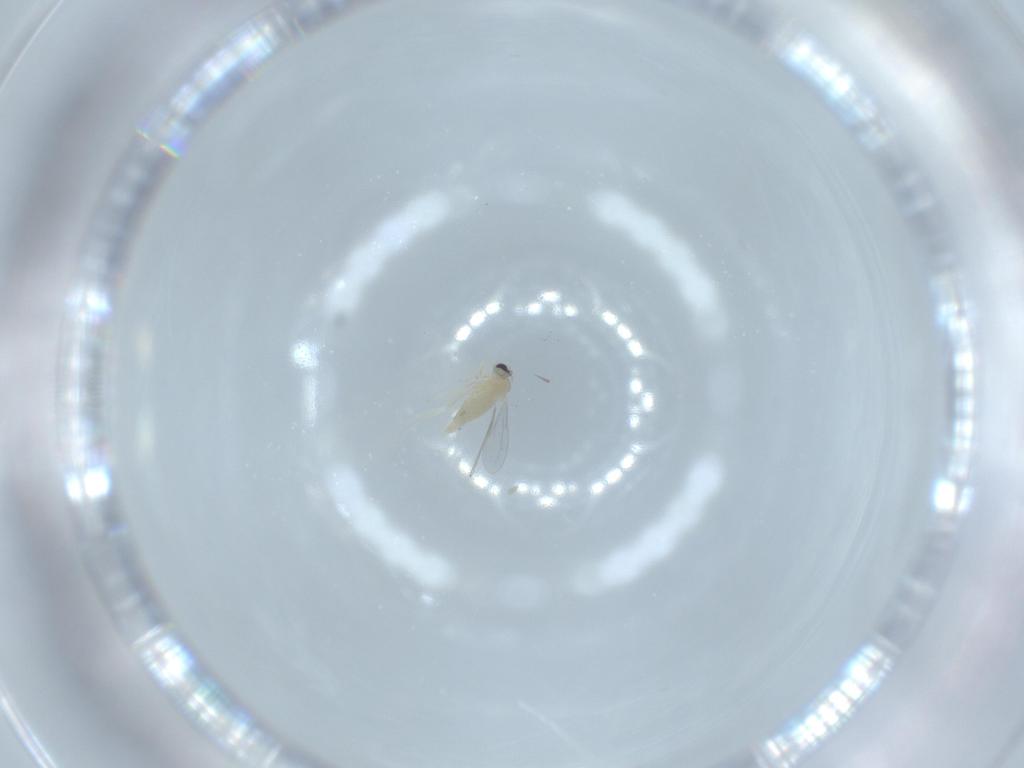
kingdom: Animalia
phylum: Arthropoda
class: Insecta
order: Diptera
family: Cecidomyiidae
